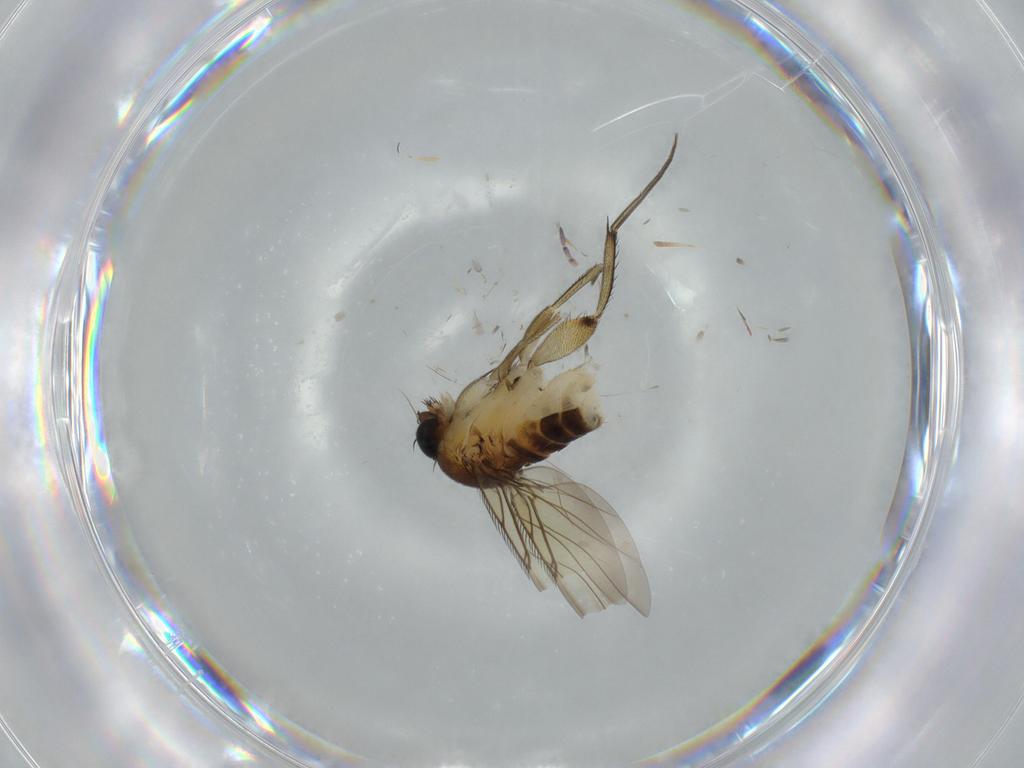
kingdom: Animalia
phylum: Arthropoda
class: Insecta
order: Diptera
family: Phoridae
